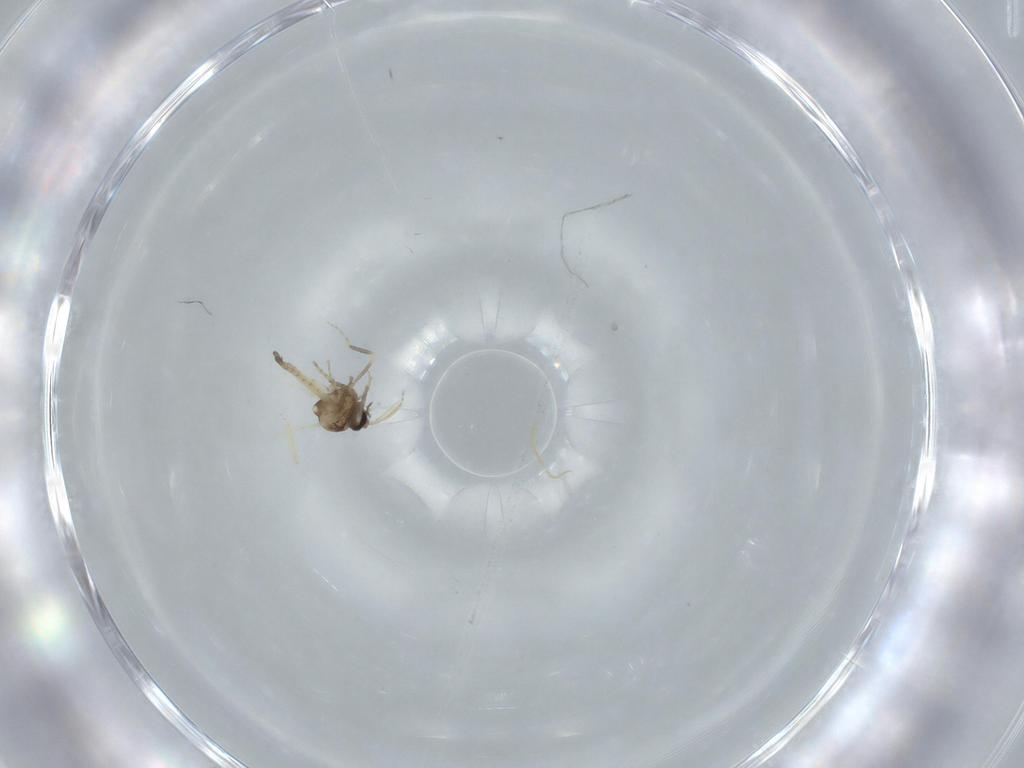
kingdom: Animalia
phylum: Arthropoda
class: Insecta
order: Diptera
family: Ceratopogonidae
